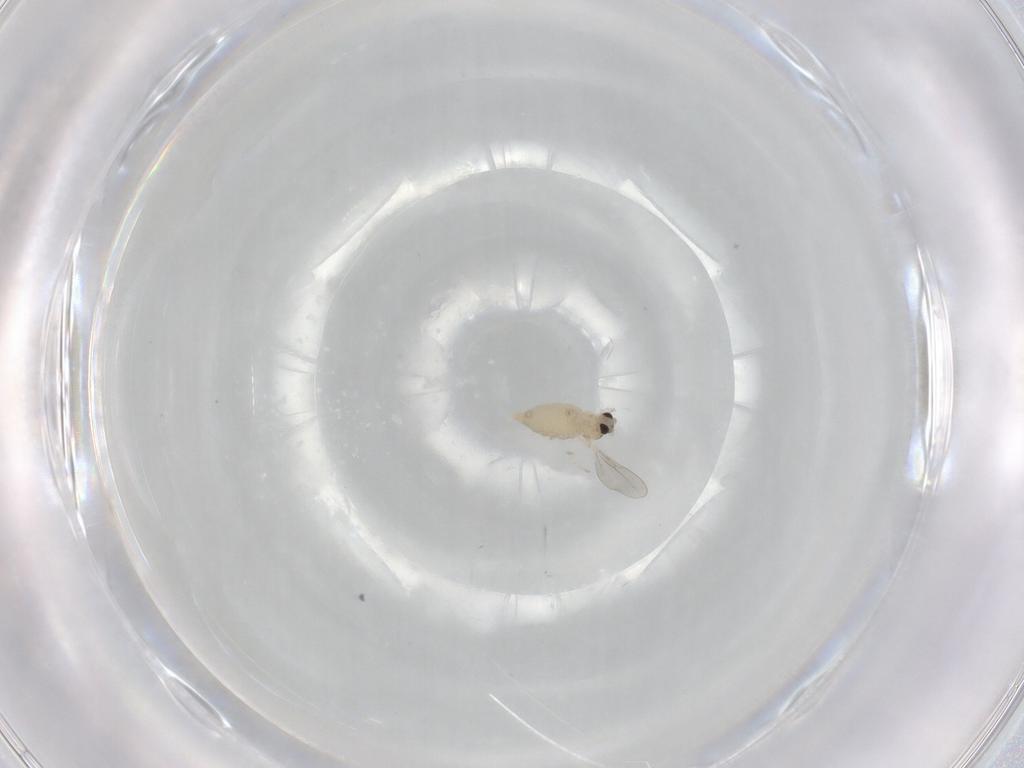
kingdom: Animalia
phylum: Arthropoda
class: Insecta
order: Diptera
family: Cecidomyiidae
